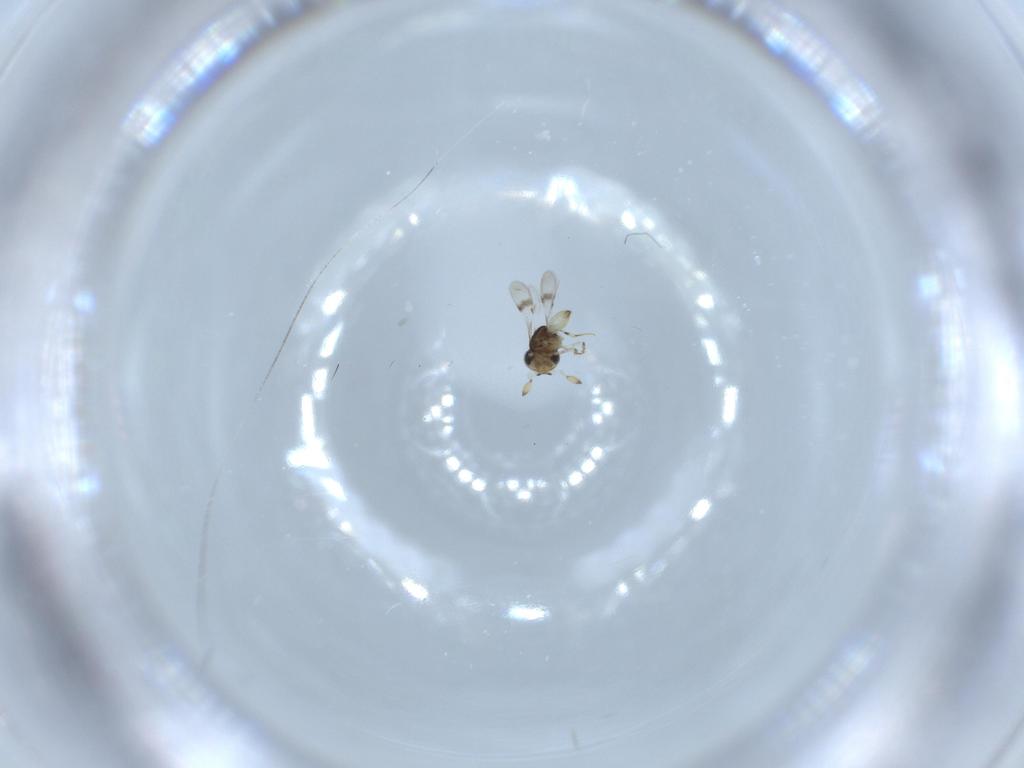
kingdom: Animalia
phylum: Arthropoda
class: Insecta
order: Hymenoptera
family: Scelionidae
